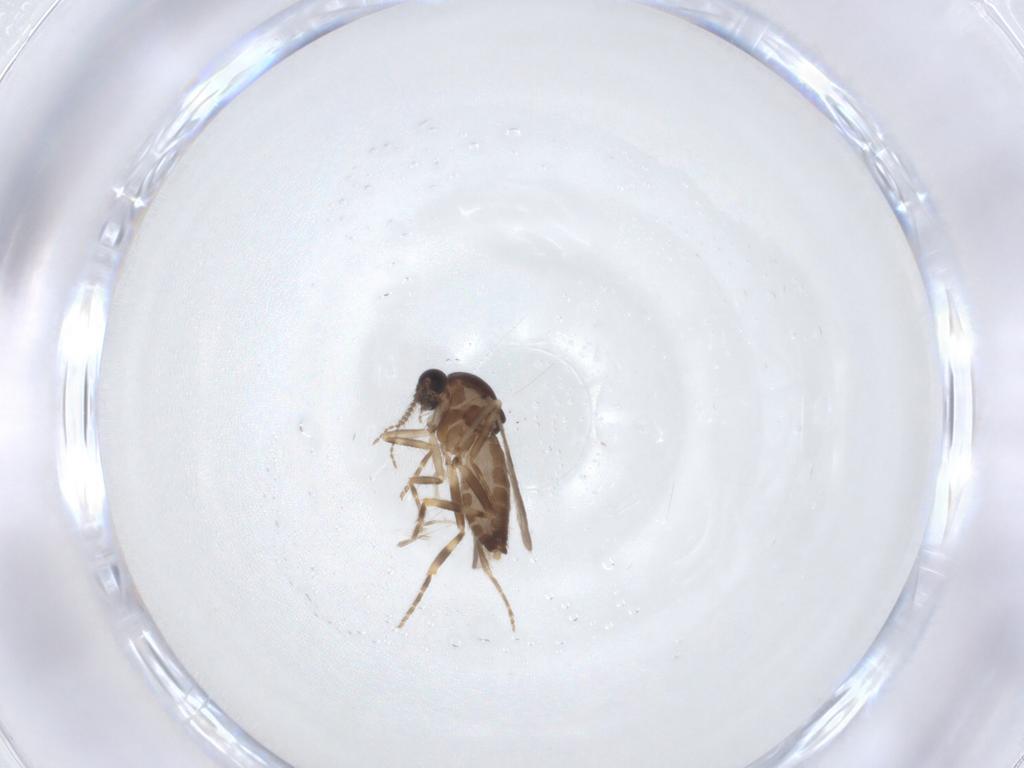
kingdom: Animalia
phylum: Arthropoda
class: Insecta
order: Diptera
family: Ceratopogonidae
